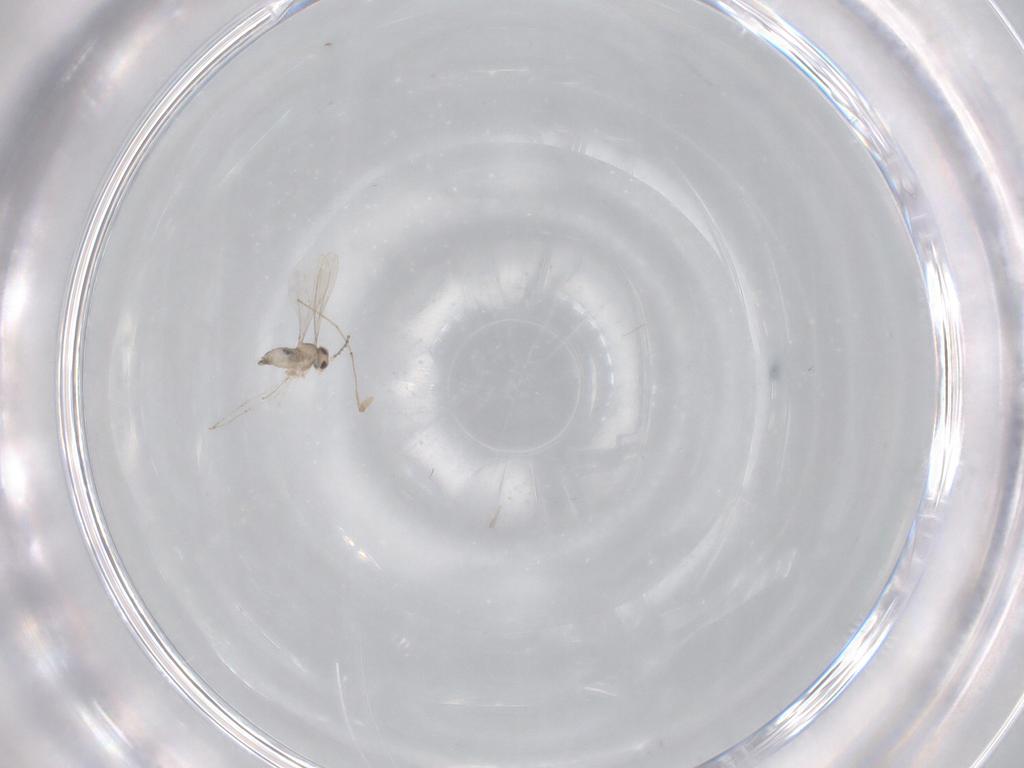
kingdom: Animalia
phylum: Arthropoda
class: Insecta
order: Diptera
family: Cecidomyiidae
